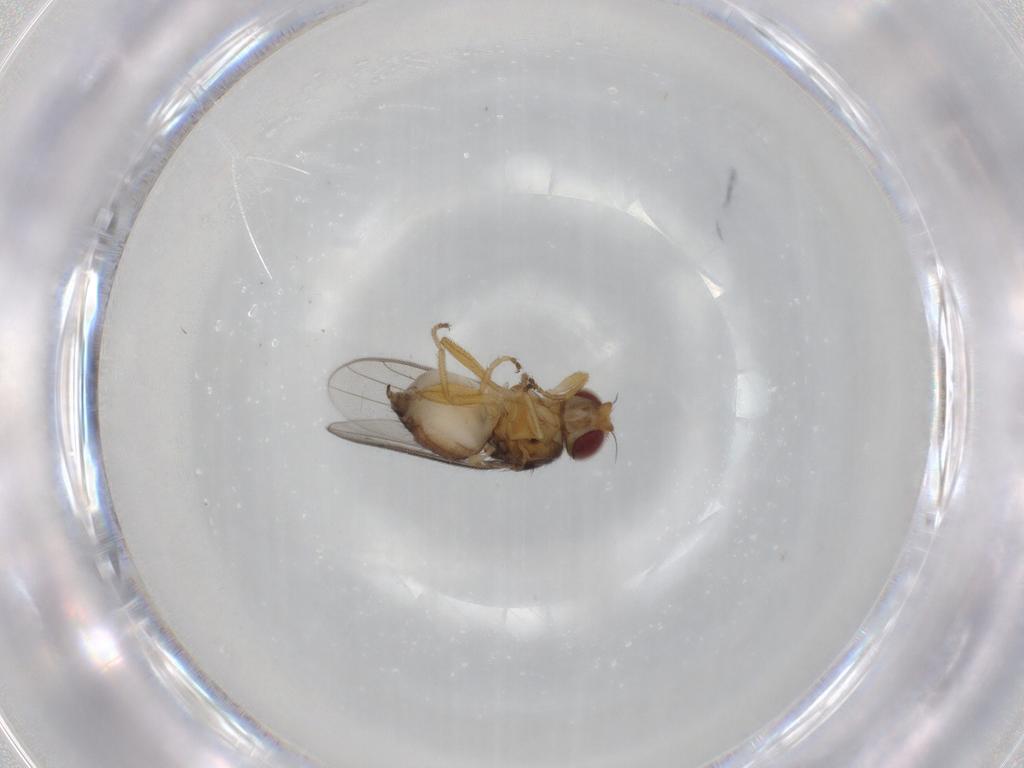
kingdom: Animalia
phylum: Arthropoda
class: Insecta
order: Diptera
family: Chloropidae
